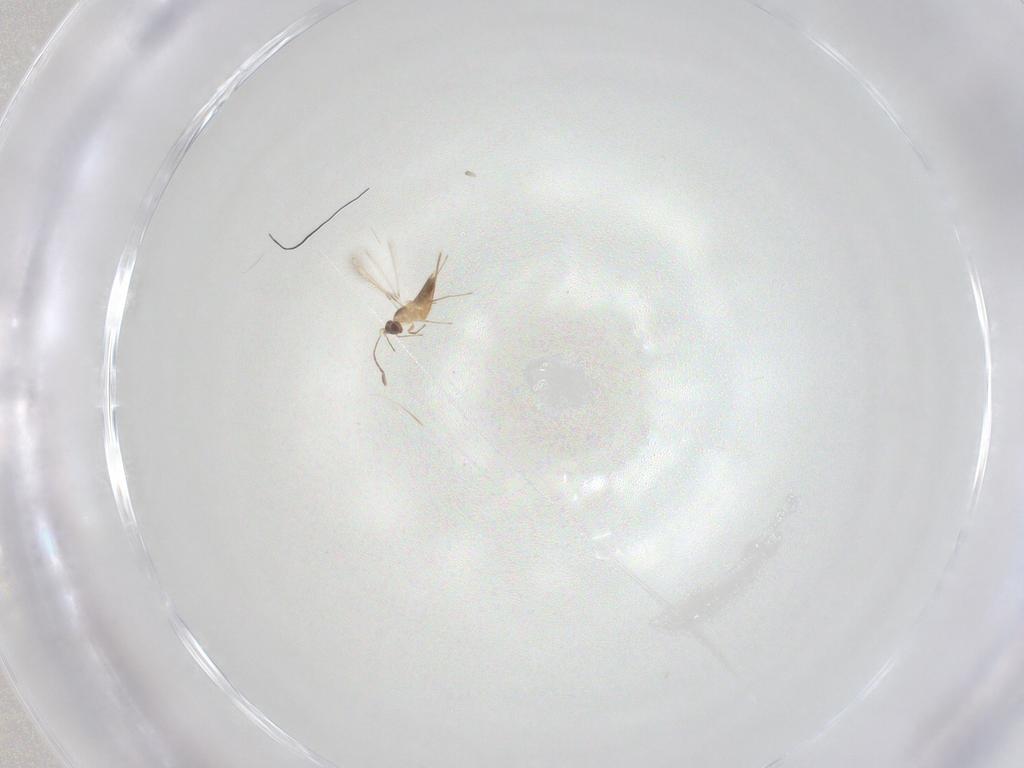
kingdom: Animalia
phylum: Arthropoda
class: Insecta
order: Hymenoptera
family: Mymaridae
